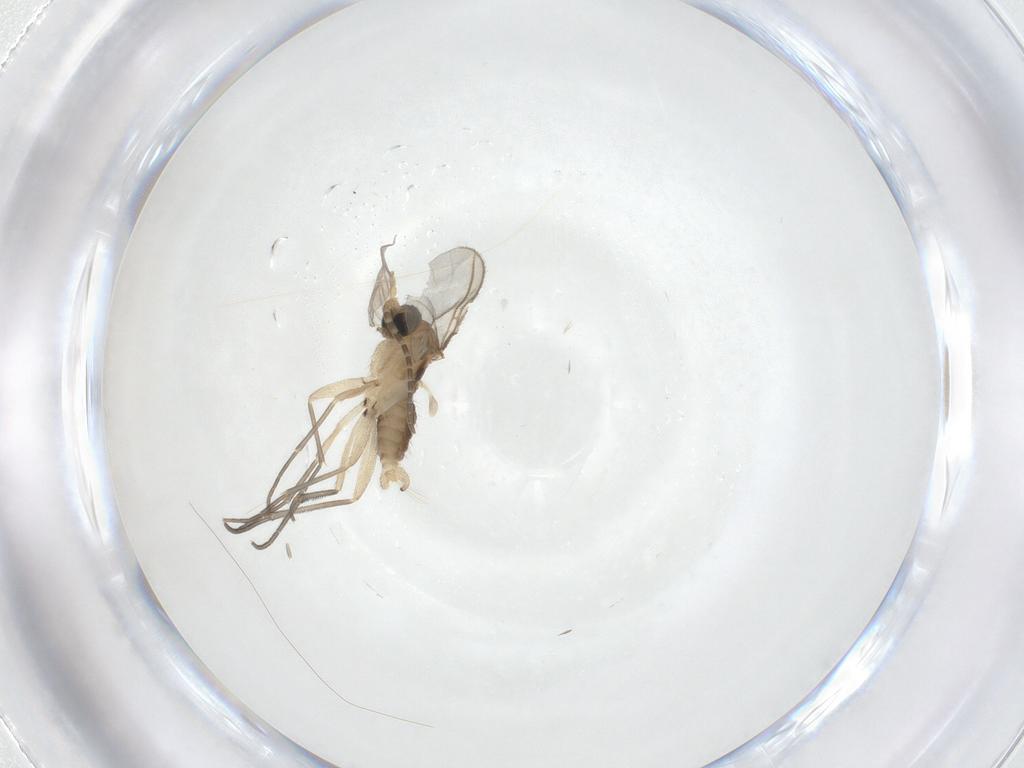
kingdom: Animalia
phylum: Arthropoda
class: Insecta
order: Diptera
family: Sciaridae
